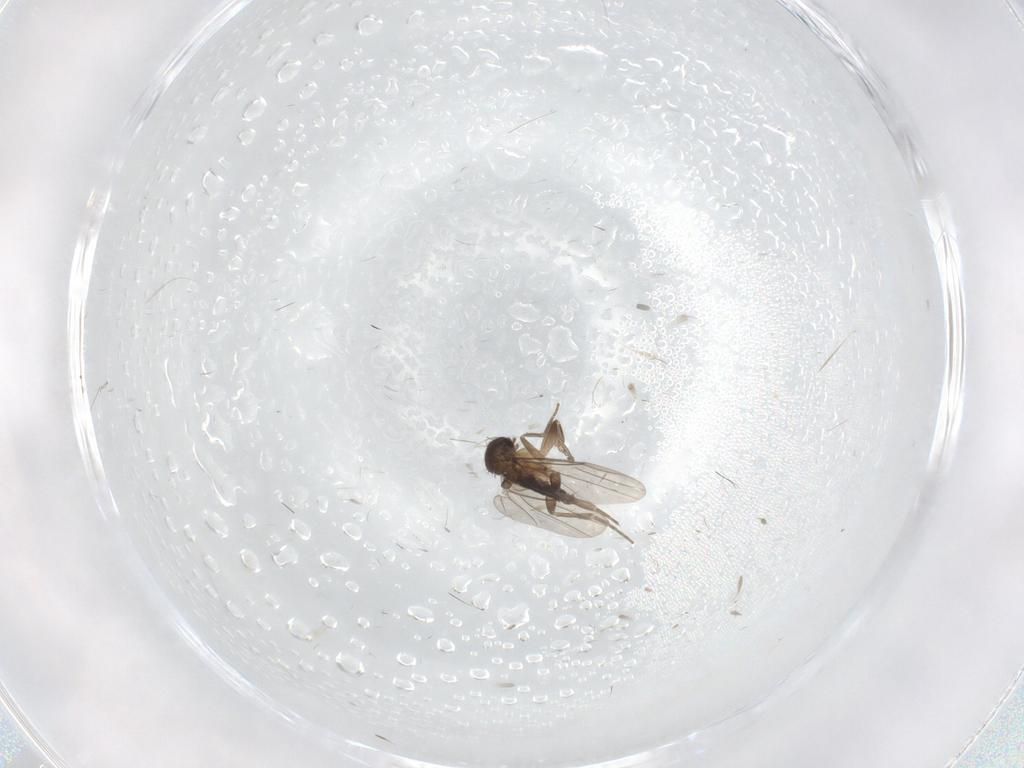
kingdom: Animalia
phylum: Arthropoda
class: Insecta
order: Diptera
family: Phoridae
